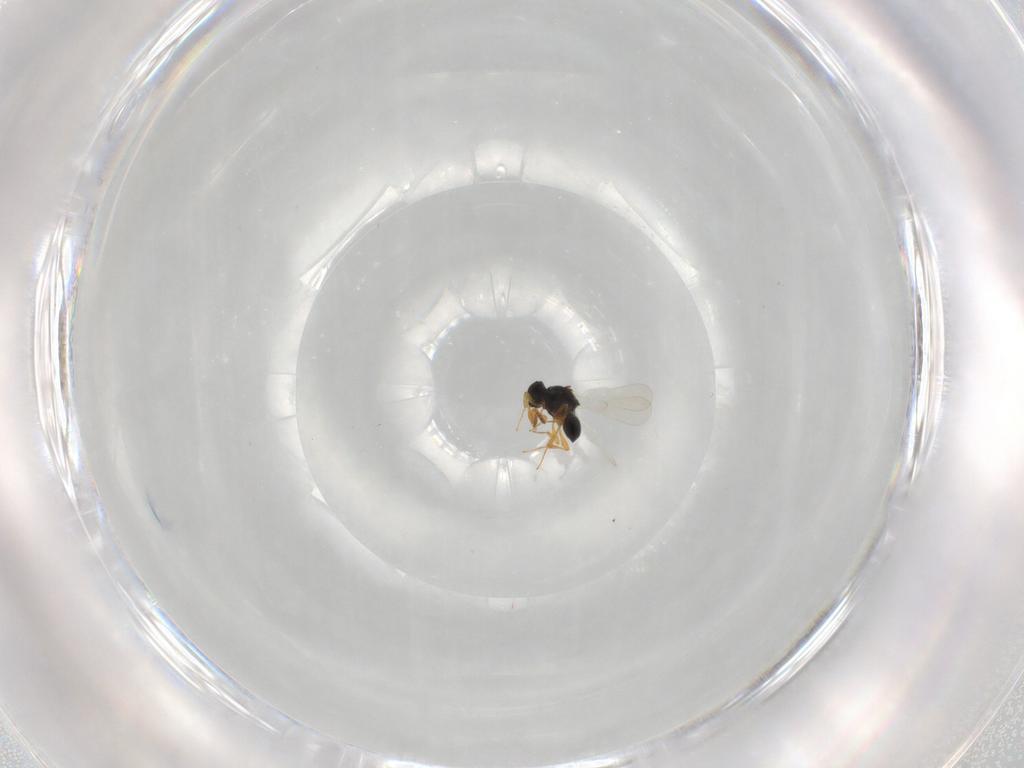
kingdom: Animalia
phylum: Arthropoda
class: Insecta
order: Hymenoptera
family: Platygastridae
